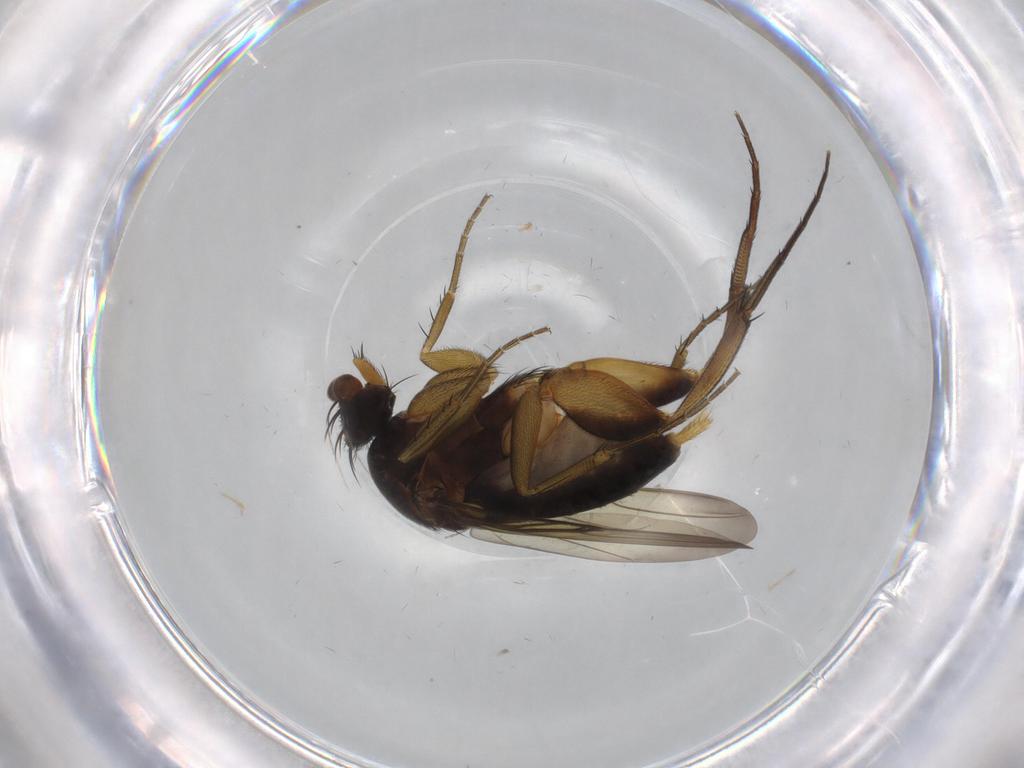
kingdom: Animalia
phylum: Arthropoda
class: Insecta
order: Diptera
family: Phoridae
